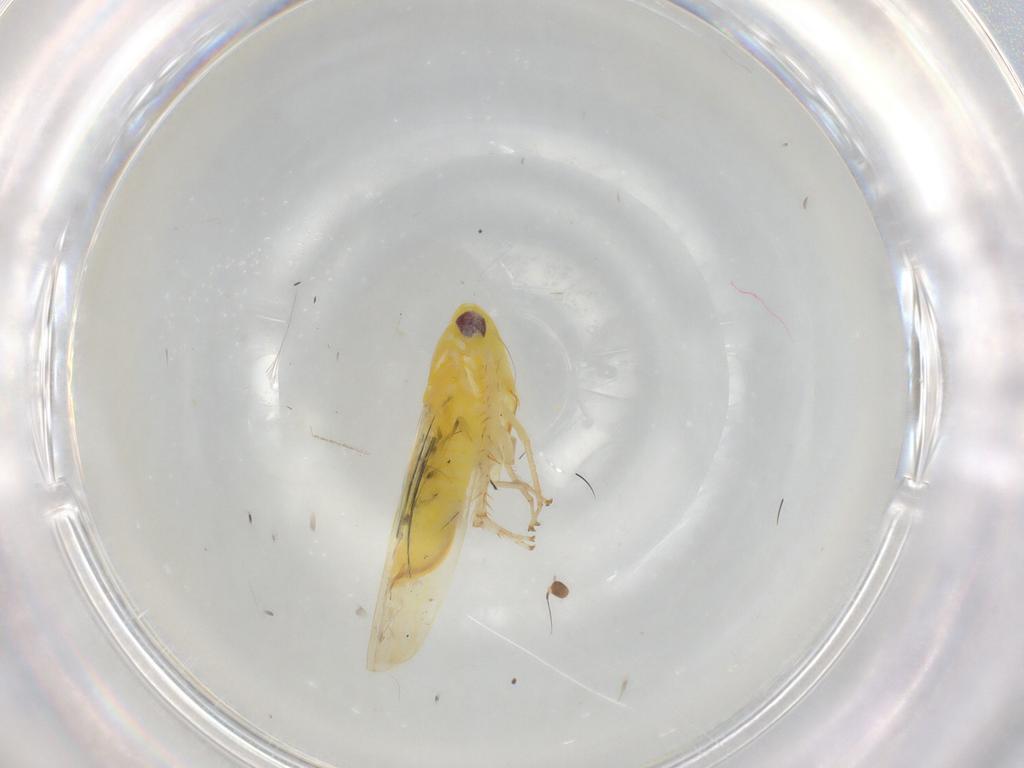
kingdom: Animalia
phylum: Arthropoda
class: Insecta
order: Hemiptera
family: Cicadellidae
